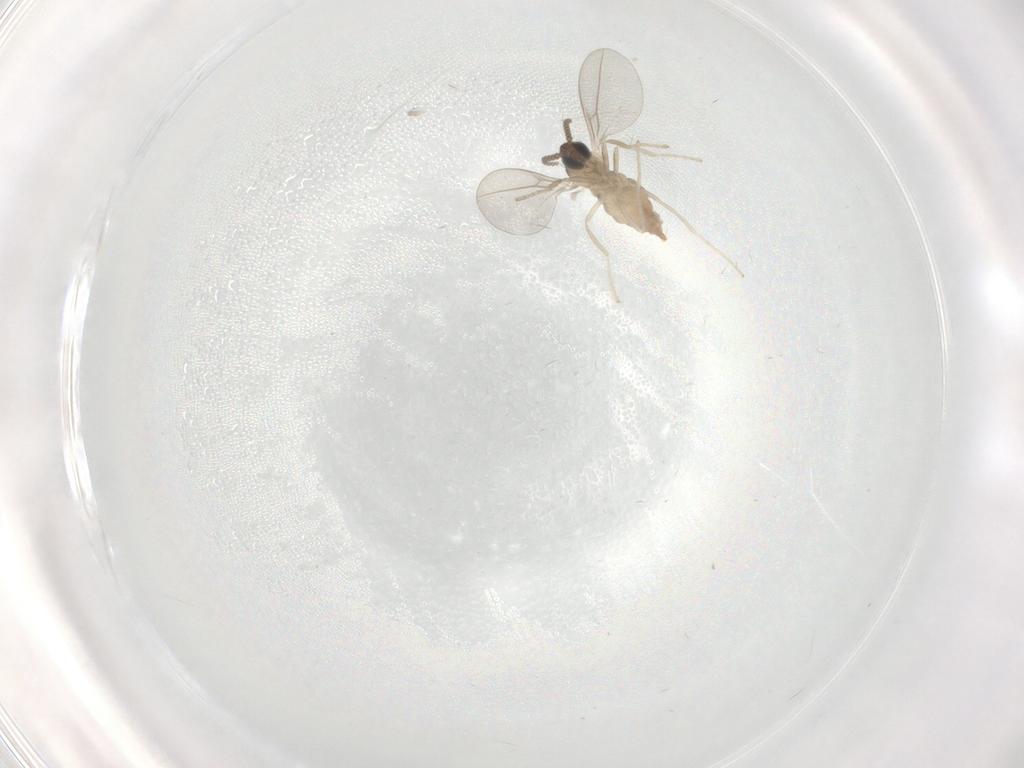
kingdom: Animalia
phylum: Arthropoda
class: Insecta
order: Diptera
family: Cecidomyiidae
